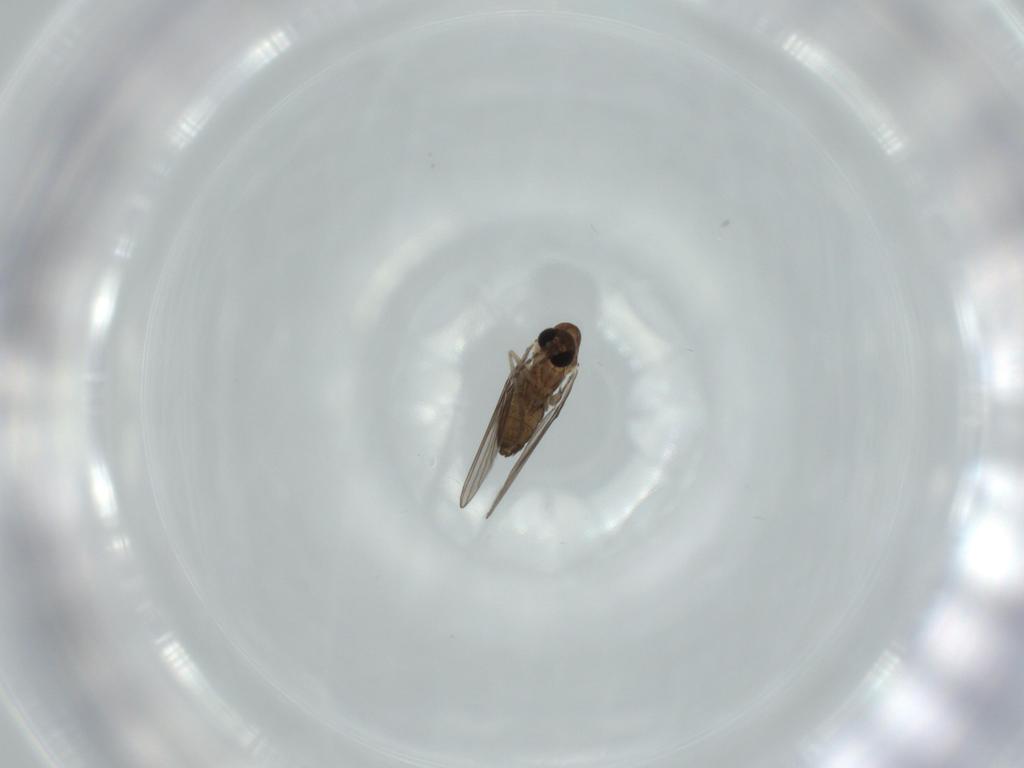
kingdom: Animalia
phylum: Arthropoda
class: Insecta
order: Diptera
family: Psychodidae
